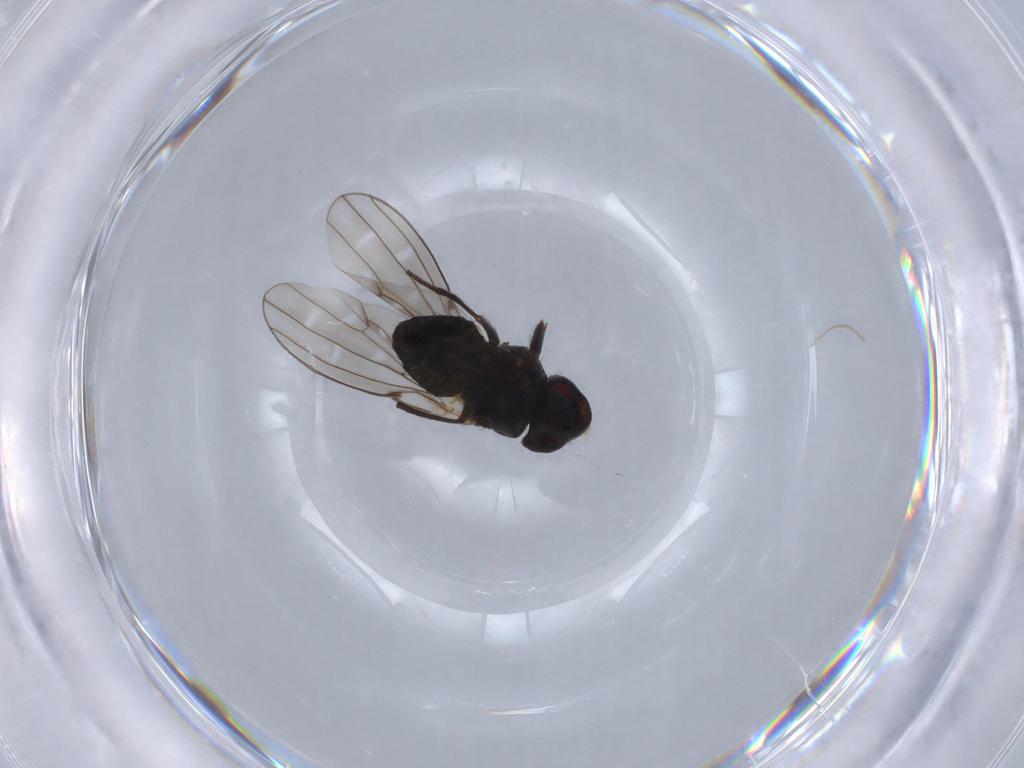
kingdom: Animalia
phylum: Arthropoda
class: Insecta
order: Diptera
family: Ephydridae
